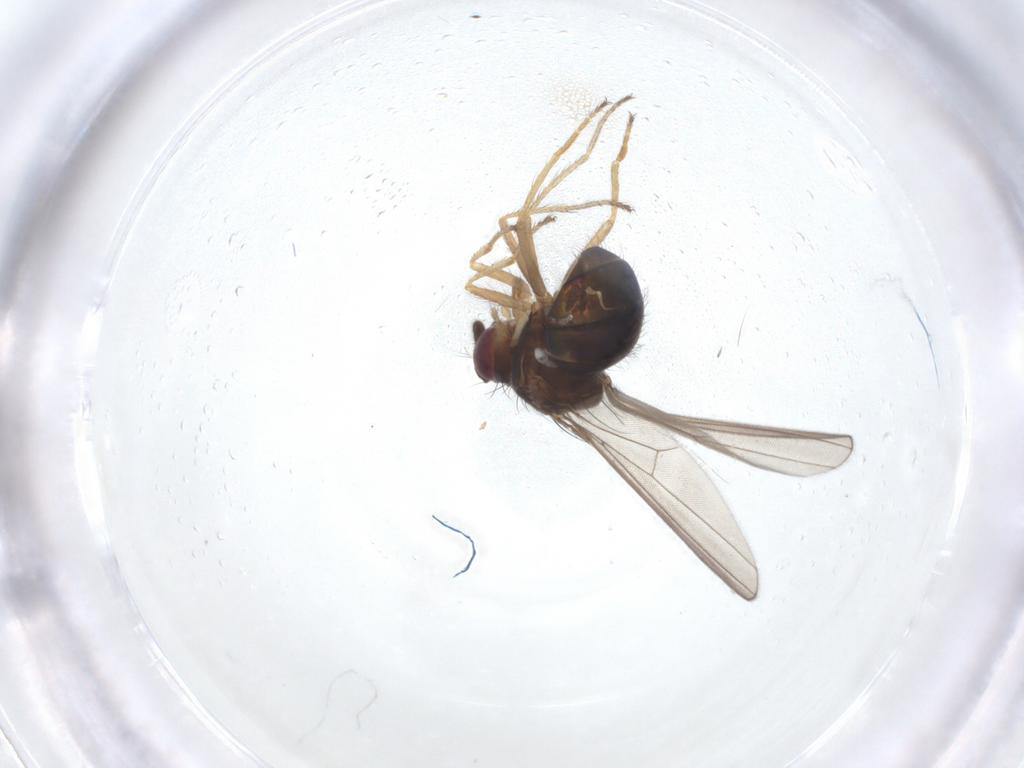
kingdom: Animalia
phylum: Arthropoda
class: Insecta
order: Diptera
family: Ephydridae
